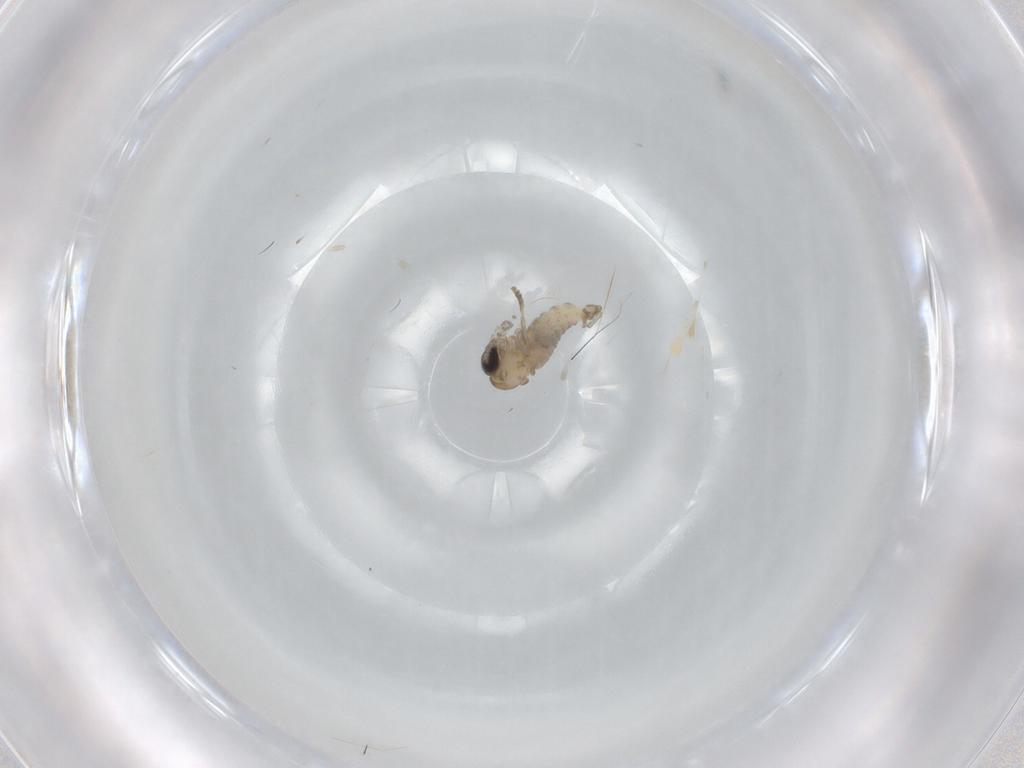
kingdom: Animalia
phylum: Arthropoda
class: Insecta
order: Diptera
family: Psychodidae
